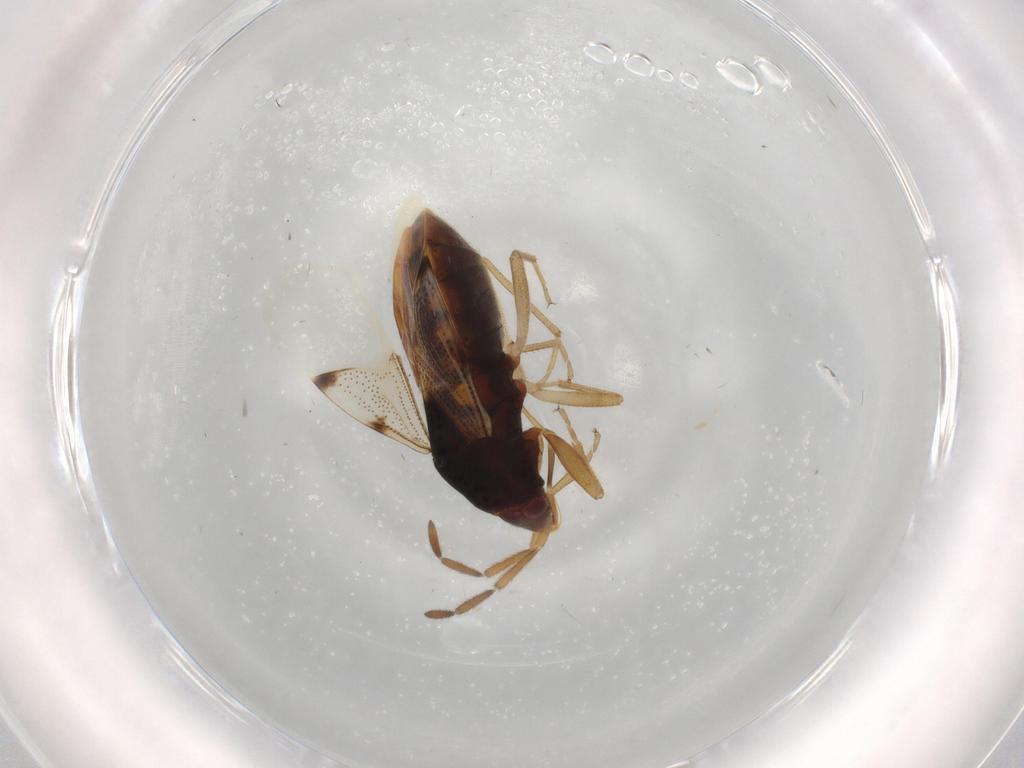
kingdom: Animalia
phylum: Arthropoda
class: Insecta
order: Hemiptera
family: Rhyparochromidae
